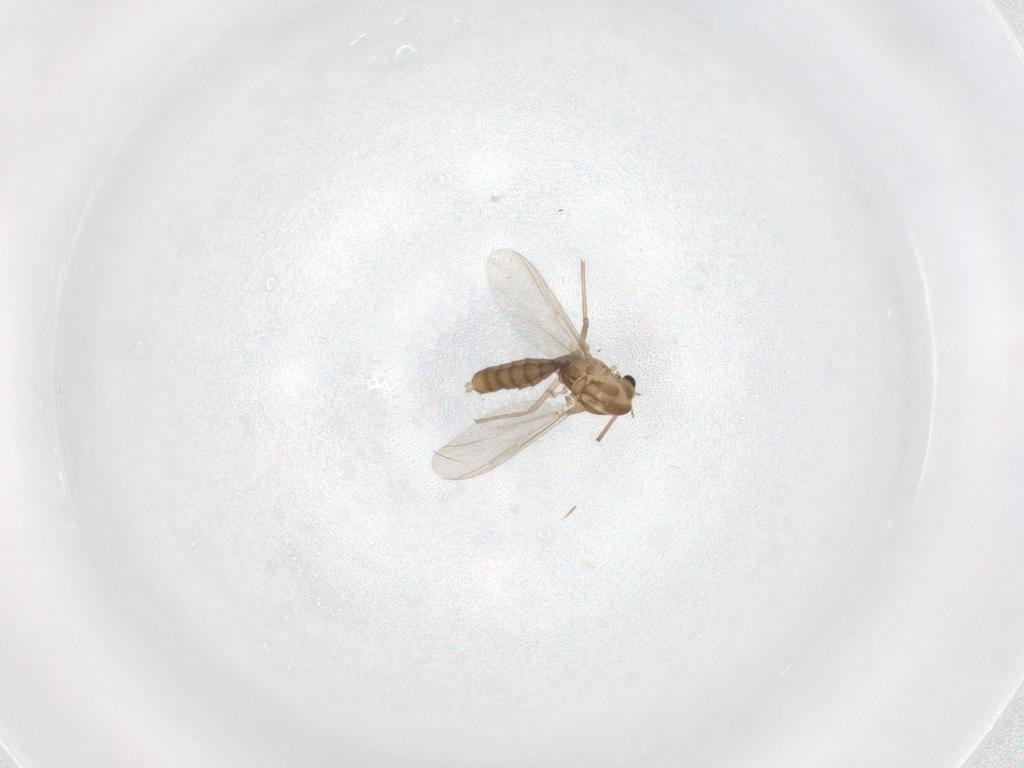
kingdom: Animalia
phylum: Arthropoda
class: Insecta
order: Diptera
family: Chironomidae
